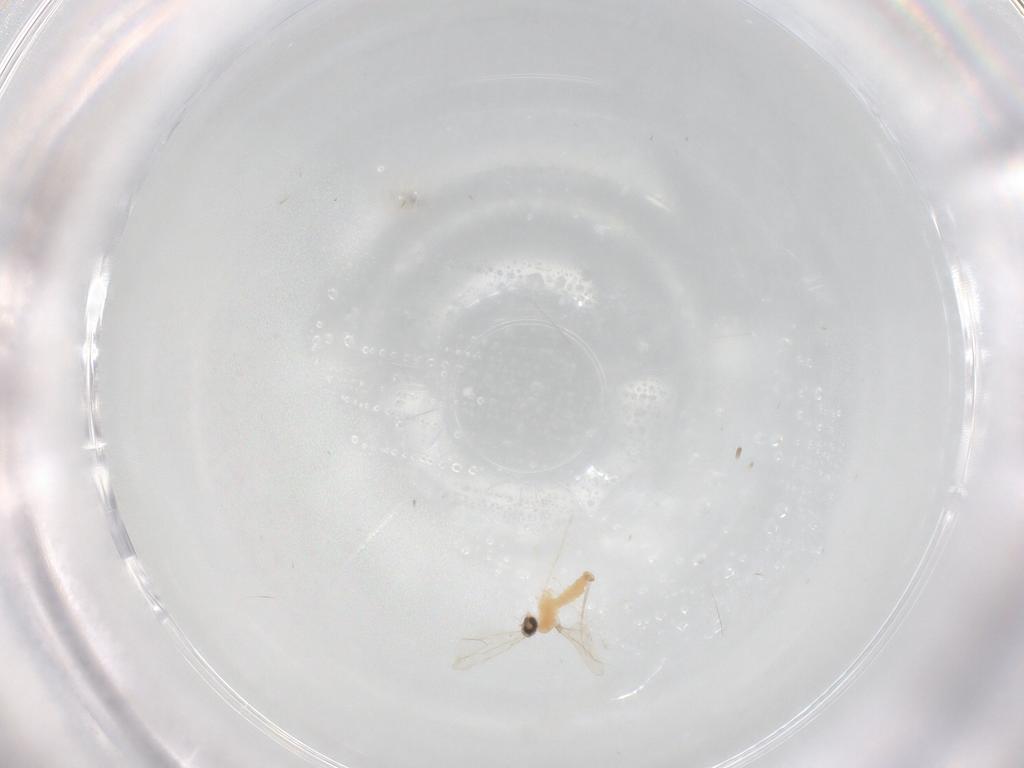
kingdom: Animalia
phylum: Arthropoda
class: Insecta
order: Diptera
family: Cecidomyiidae
